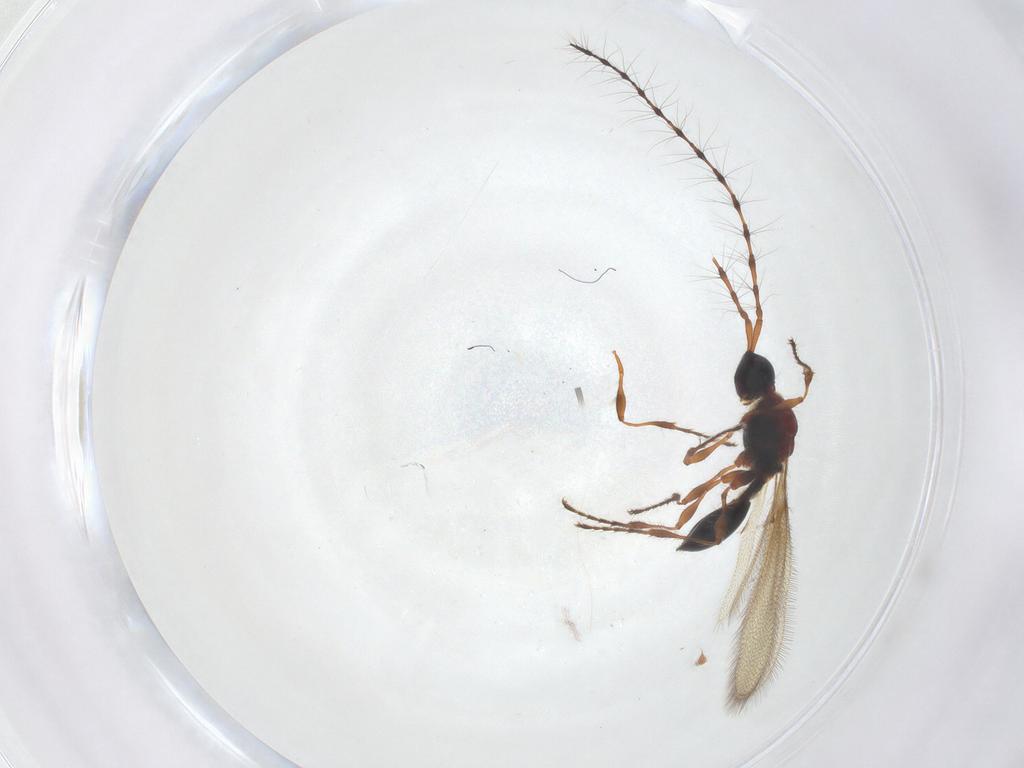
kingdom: Animalia
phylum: Arthropoda
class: Insecta
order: Hymenoptera
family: Diapriidae
